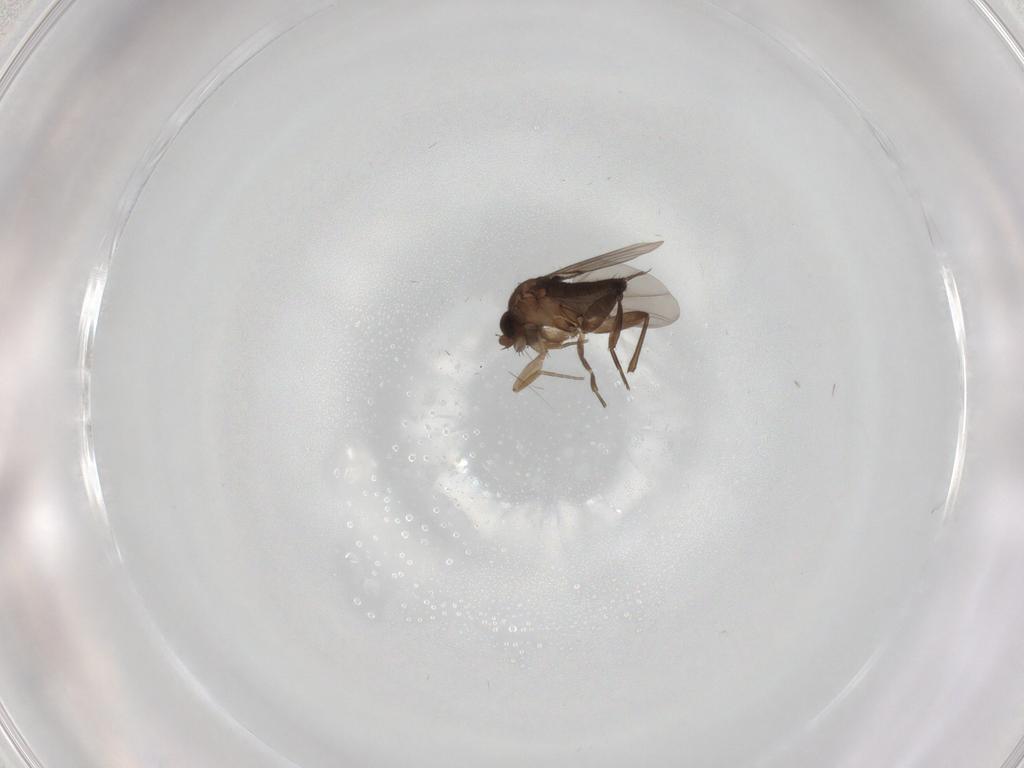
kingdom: Animalia
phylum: Arthropoda
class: Insecta
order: Diptera
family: Phoridae
